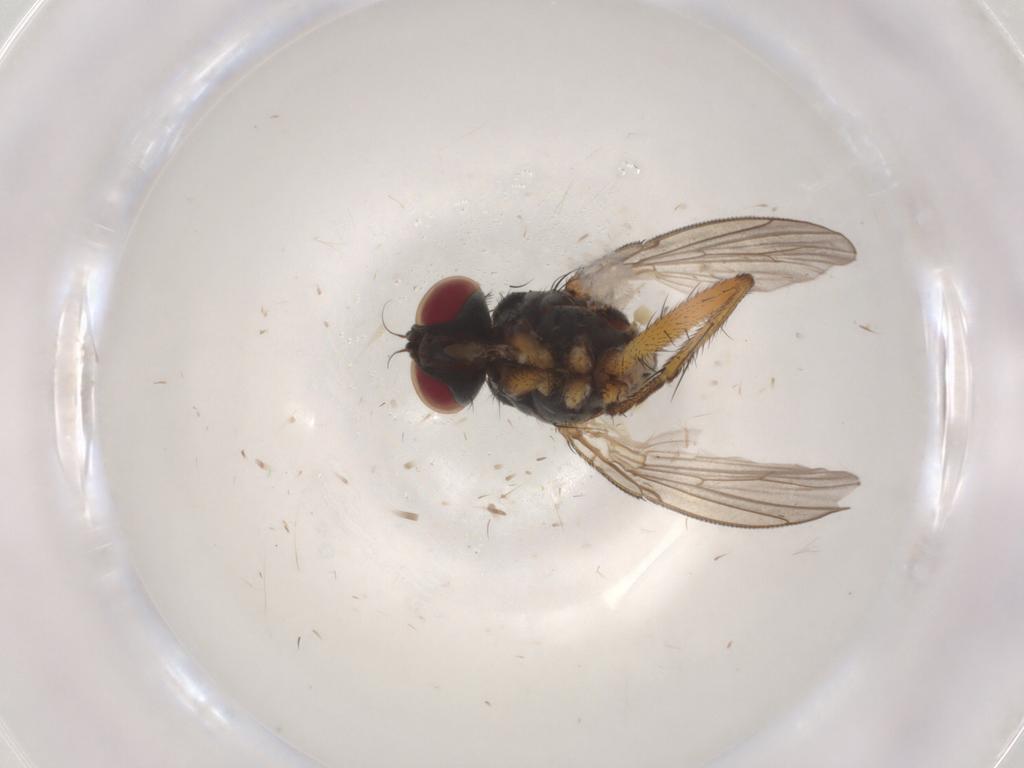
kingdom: Animalia
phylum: Arthropoda
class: Insecta
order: Diptera
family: Muscidae
